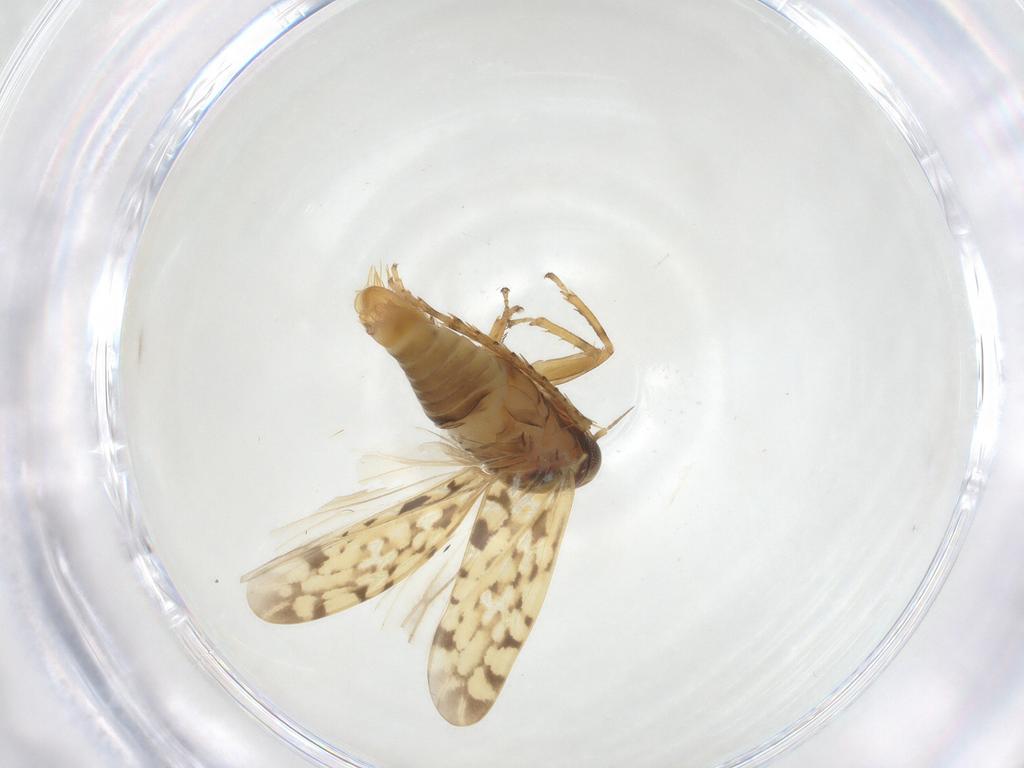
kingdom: Animalia
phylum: Arthropoda
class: Insecta
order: Hemiptera
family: Cicadellidae
